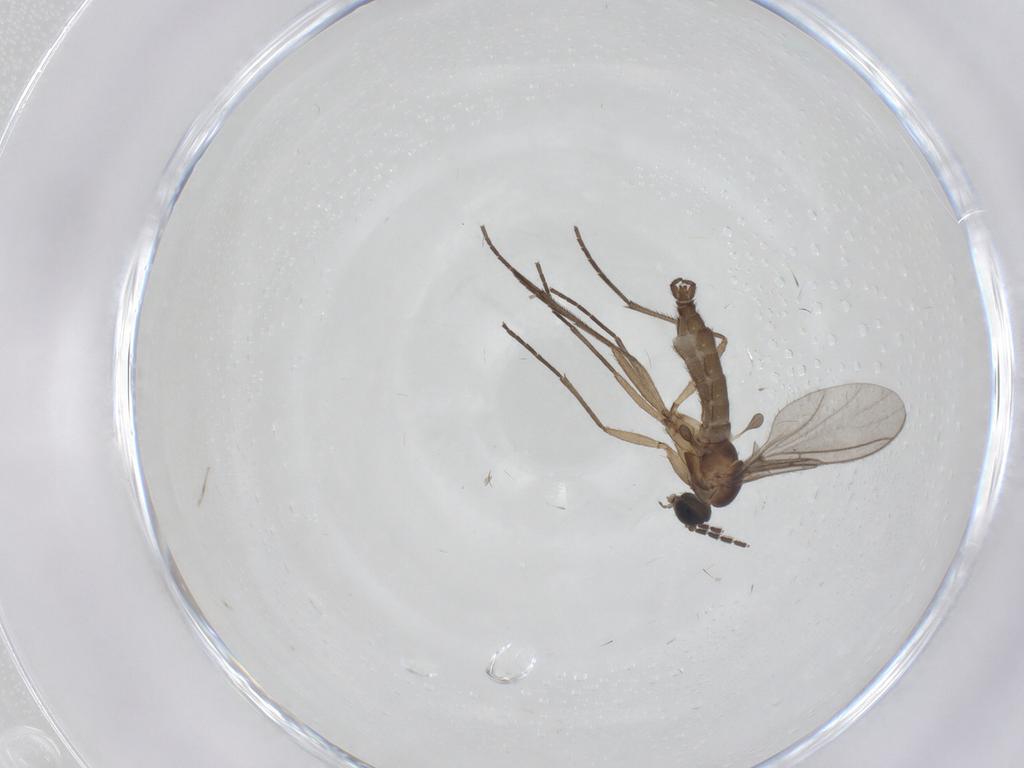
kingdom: Animalia
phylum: Arthropoda
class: Insecta
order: Diptera
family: Sciaridae
